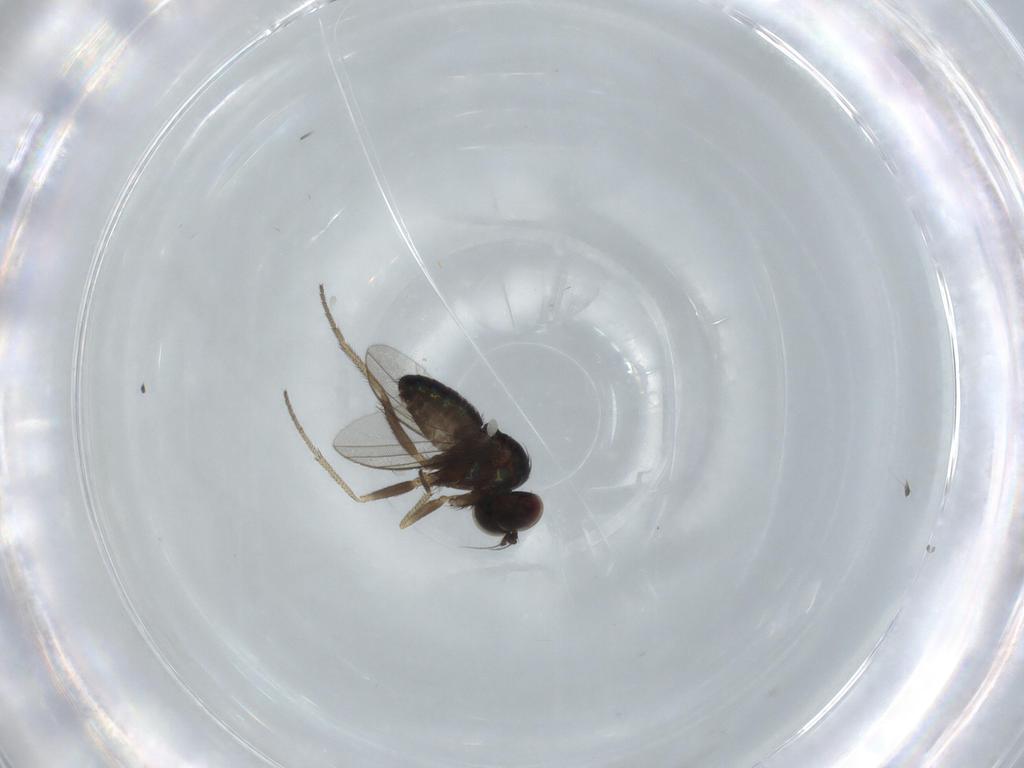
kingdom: Animalia
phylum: Arthropoda
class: Insecta
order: Diptera
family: Dolichopodidae
